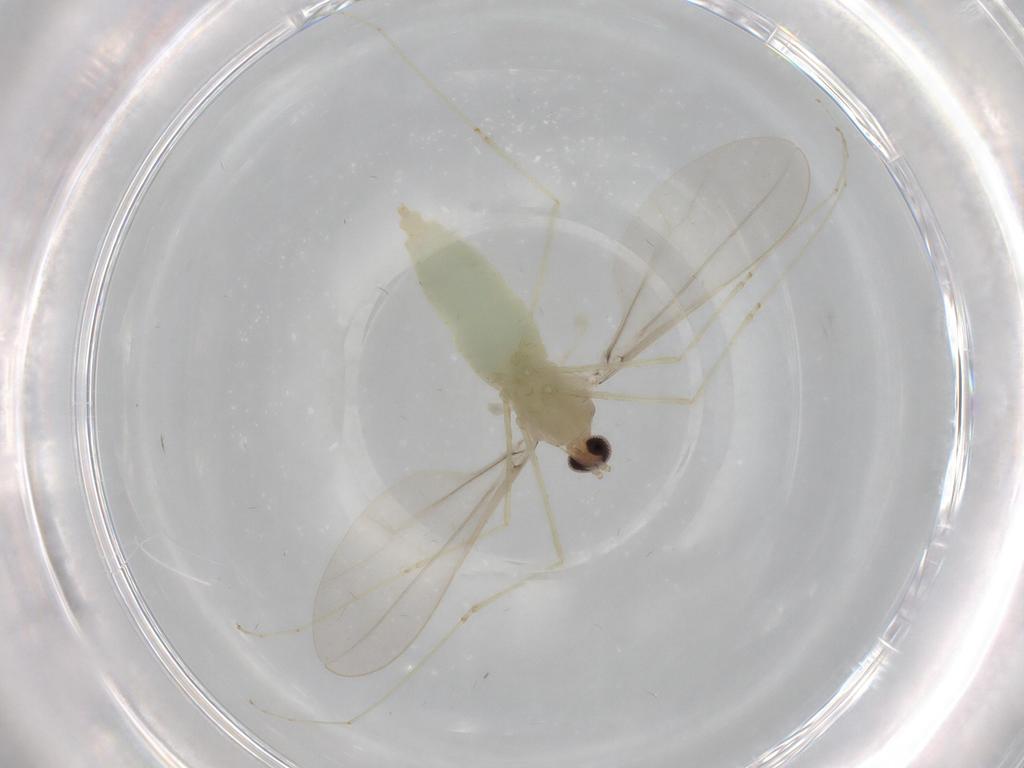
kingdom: Animalia
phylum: Arthropoda
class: Insecta
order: Diptera
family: Cecidomyiidae
